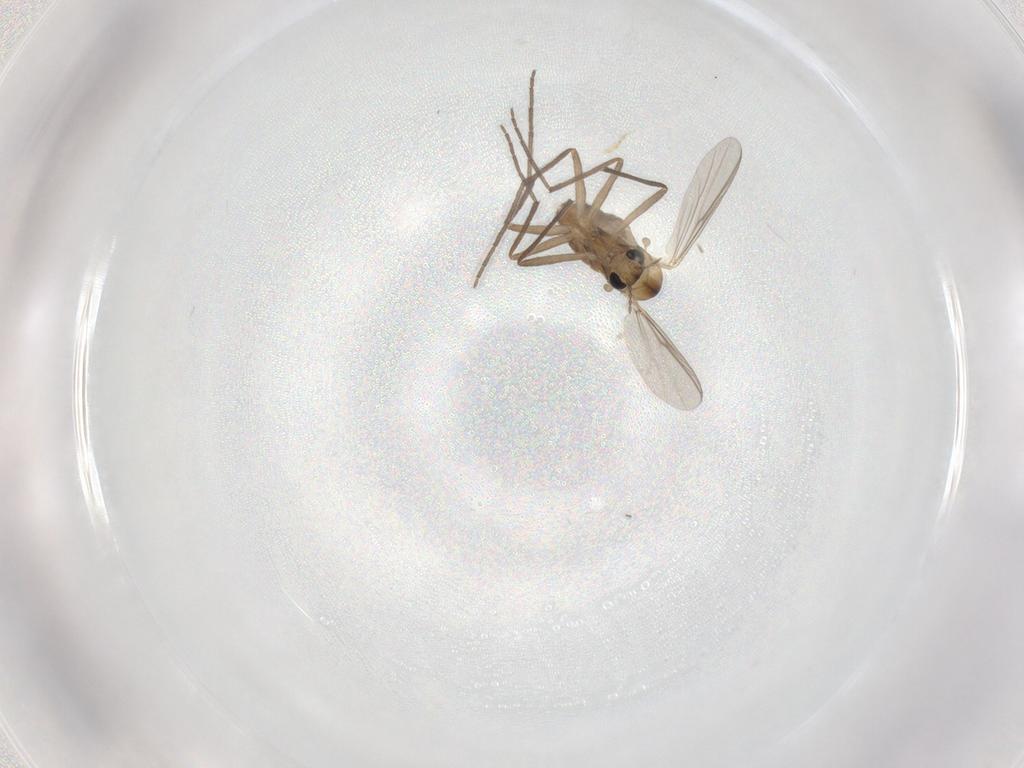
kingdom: Animalia
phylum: Arthropoda
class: Insecta
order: Diptera
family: Chironomidae
